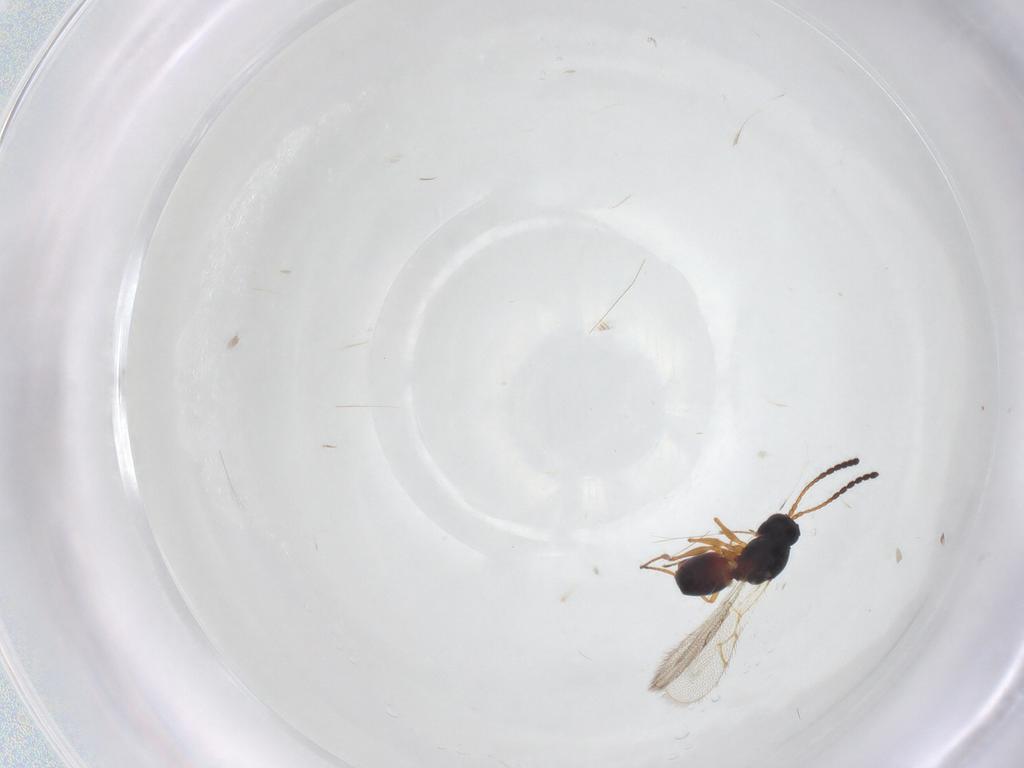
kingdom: Animalia
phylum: Arthropoda
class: Insecta
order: Hymenoptera
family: Figitidae
